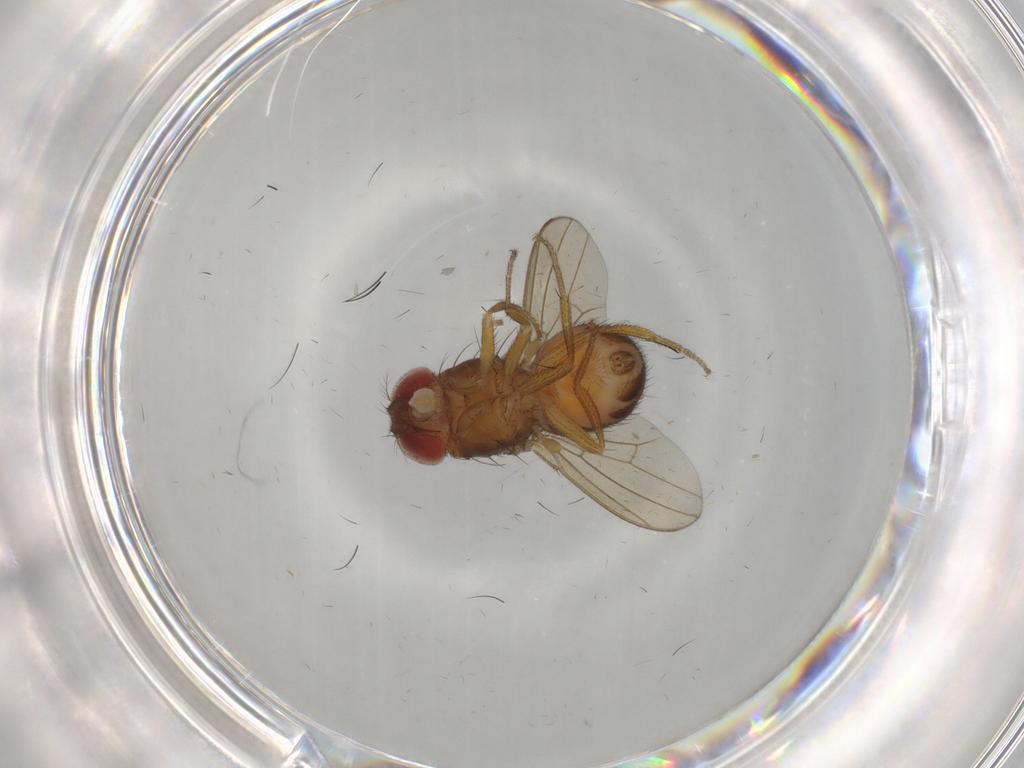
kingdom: Animalia
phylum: Arthropoda
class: Insecta
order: Diptera
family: Drosophilidae
